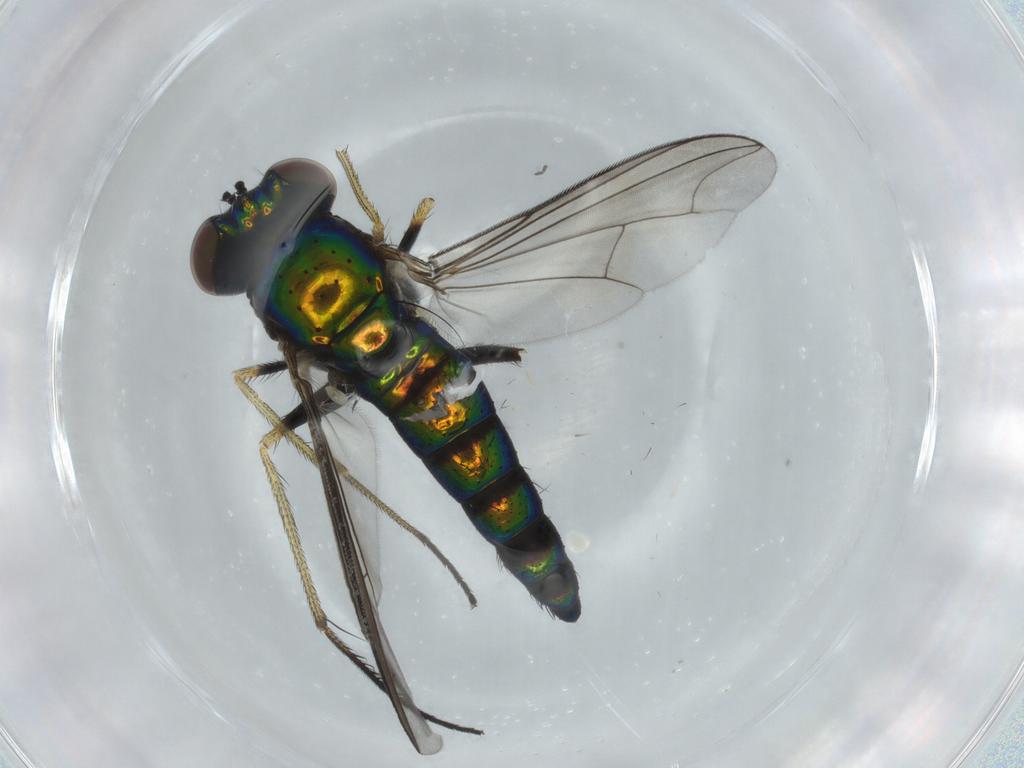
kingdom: Animalia
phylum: Arthropoda
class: Insecta
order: Diptera
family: Chloropidae
